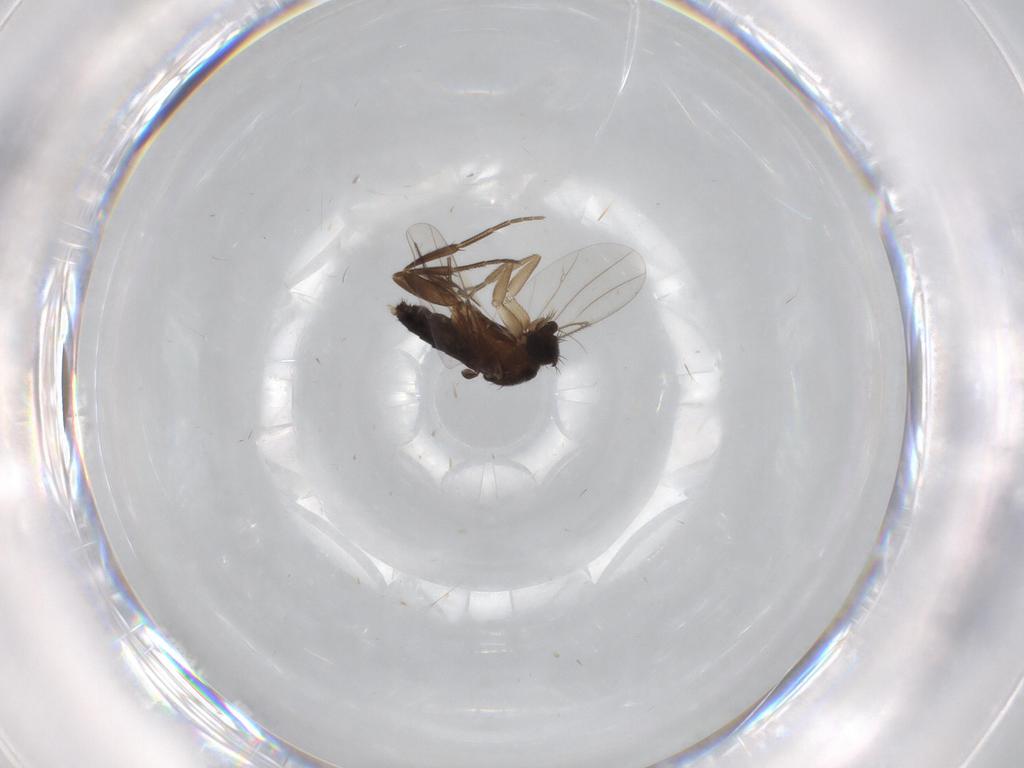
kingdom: Animalia
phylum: Arthropoda
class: Insecta
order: Diptera
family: Phoridae
